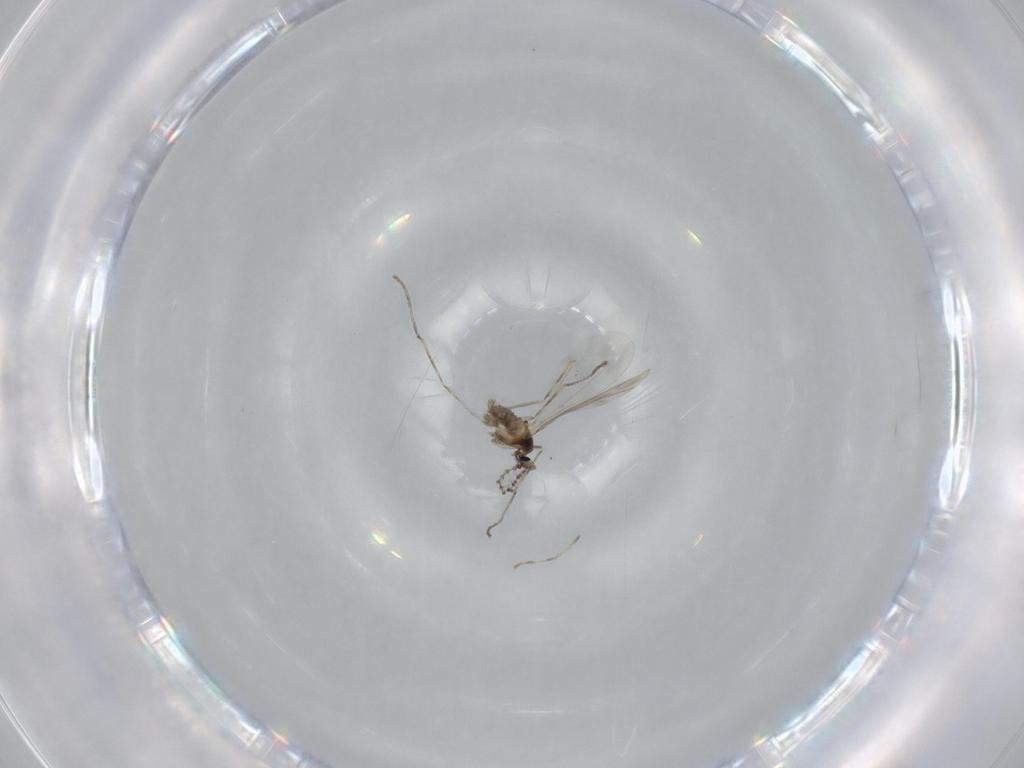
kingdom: Animalia
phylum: Arthropoda
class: Insecta
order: Diptera
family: Cecidomyiidae
